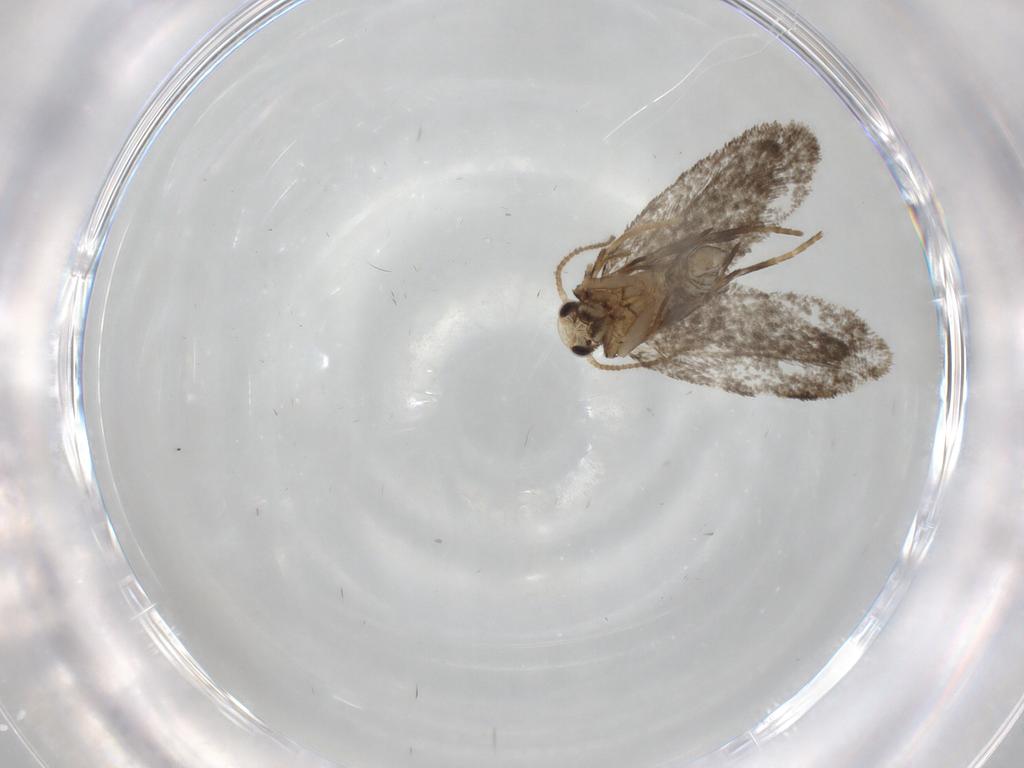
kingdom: Animalia
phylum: Arthropoda
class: Insecta
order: Lepidoptera
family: Psychidae
